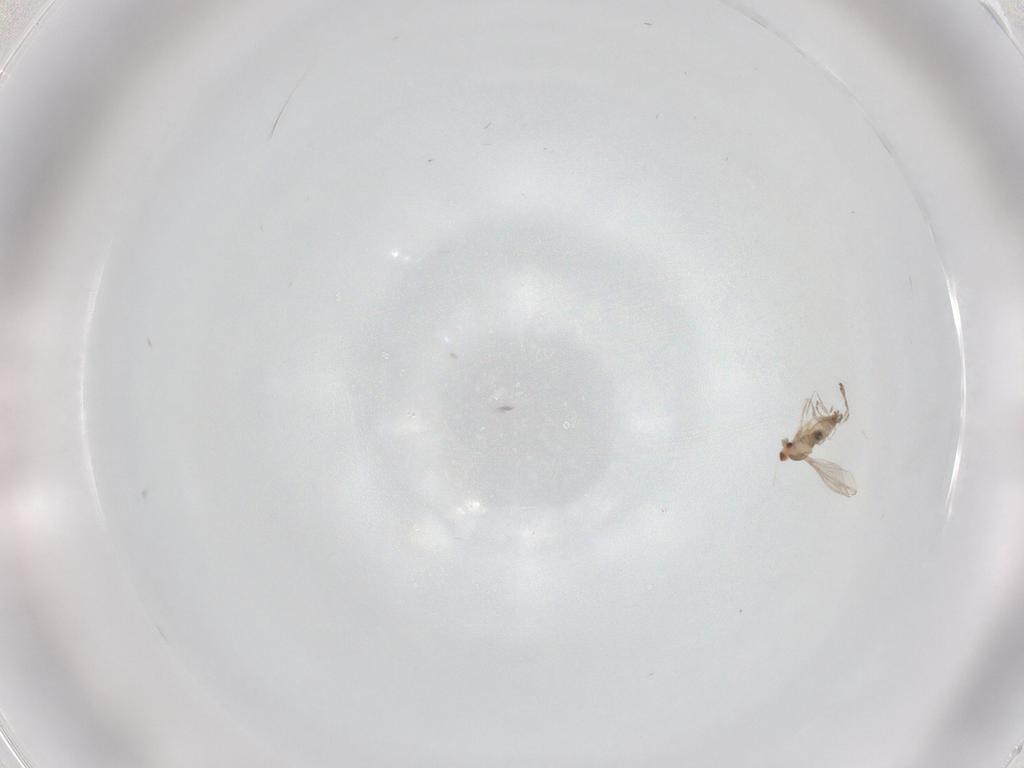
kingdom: Animalia
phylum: Arthropoda
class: Insecta
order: Diptera
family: Cecidomyiidae
